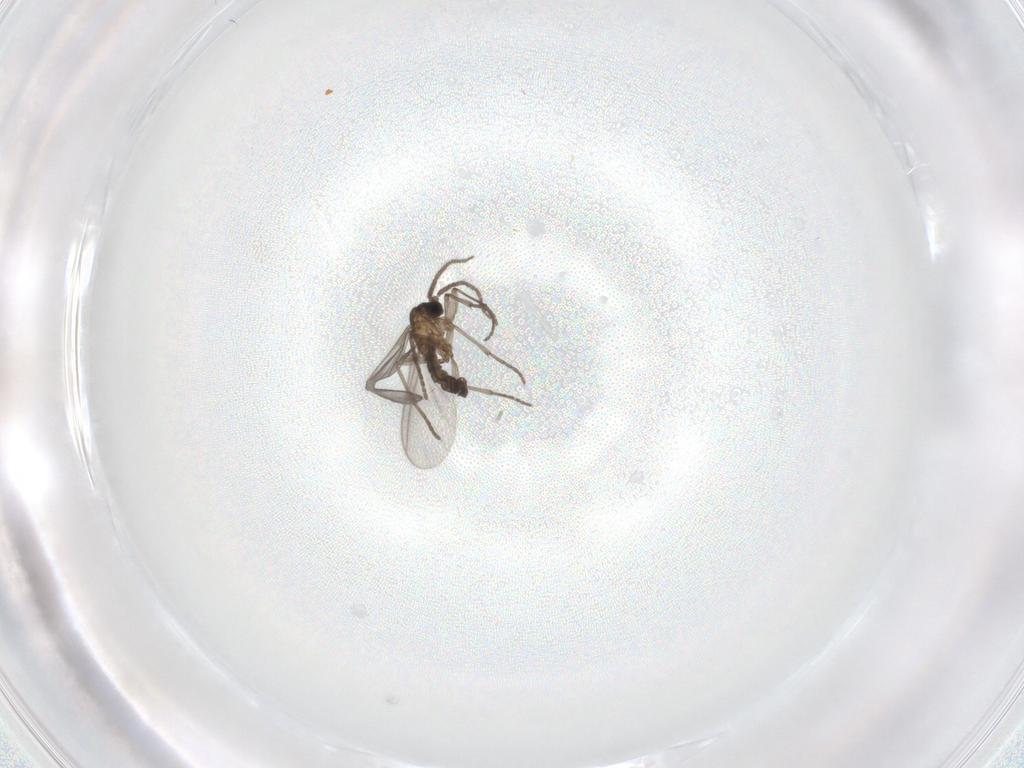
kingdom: Animalia
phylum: Arthropoda
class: Insecta
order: Diptera
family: Sciaridae
